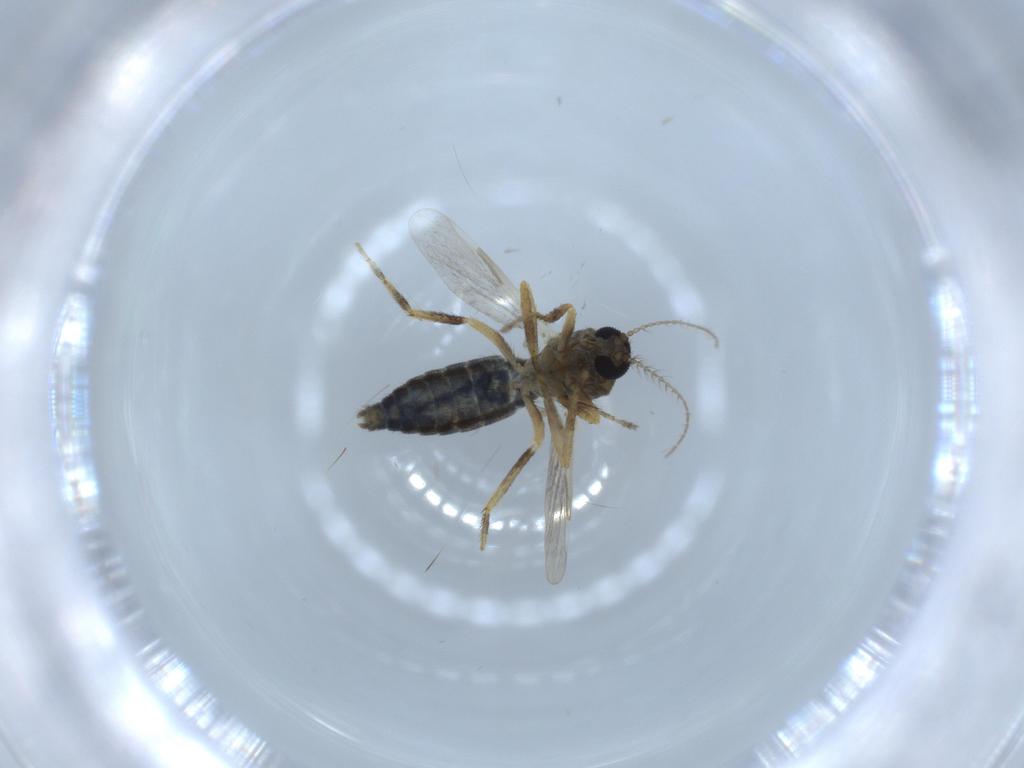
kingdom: Animalia
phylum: Arthropoda
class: Insecta
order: Diptera
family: Ceratopogonidae
